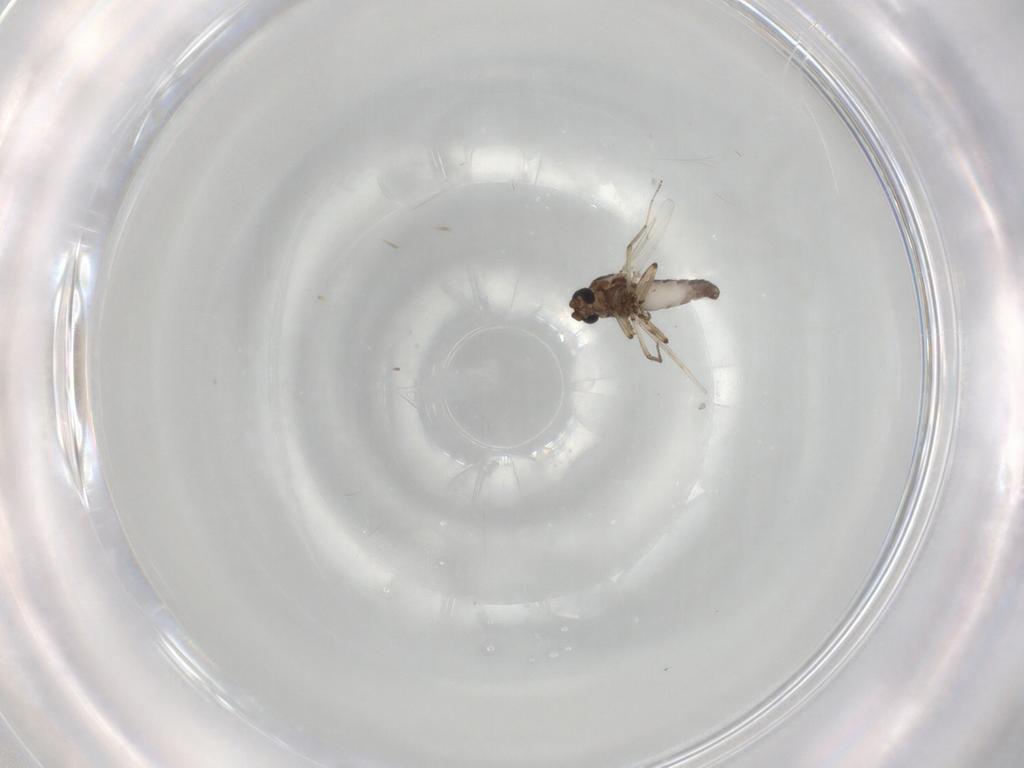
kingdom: Animalia
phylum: Arthropoda
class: Insecta
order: Diptera
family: Ceratopogonidae
